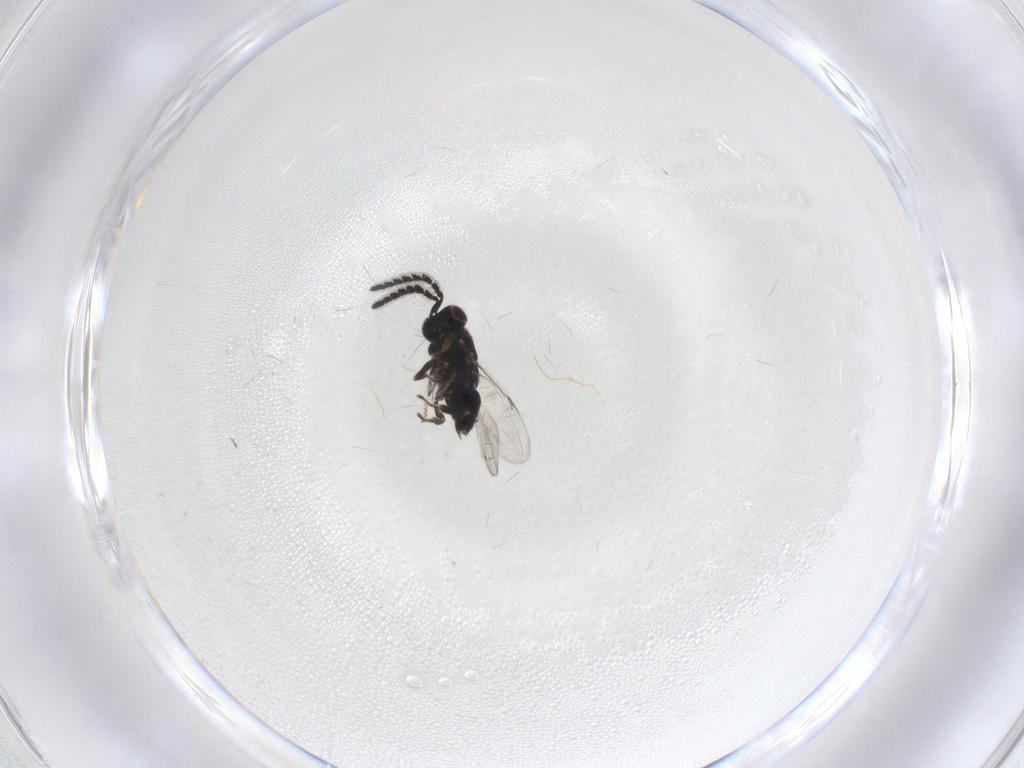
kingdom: Animalia
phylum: Arthropoda
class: Insecta
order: Hymenoptera
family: Encyrtidae
